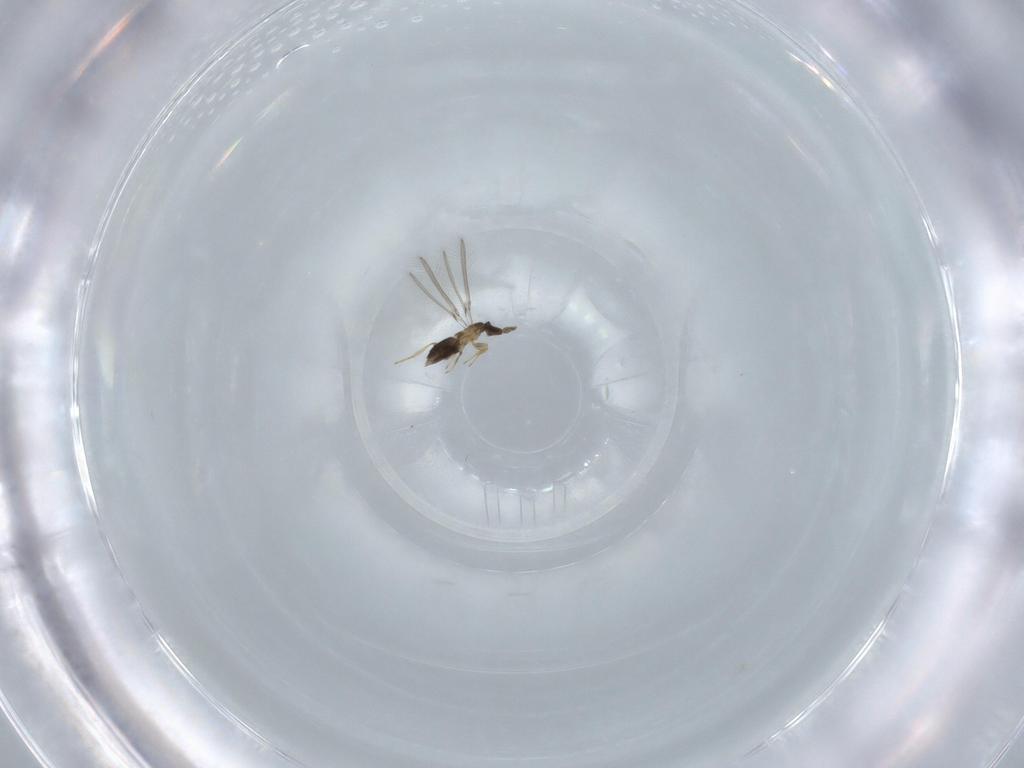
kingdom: Animalia
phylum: Arthropoda
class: Insecta
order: Hymenoptera
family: Mymaridae
